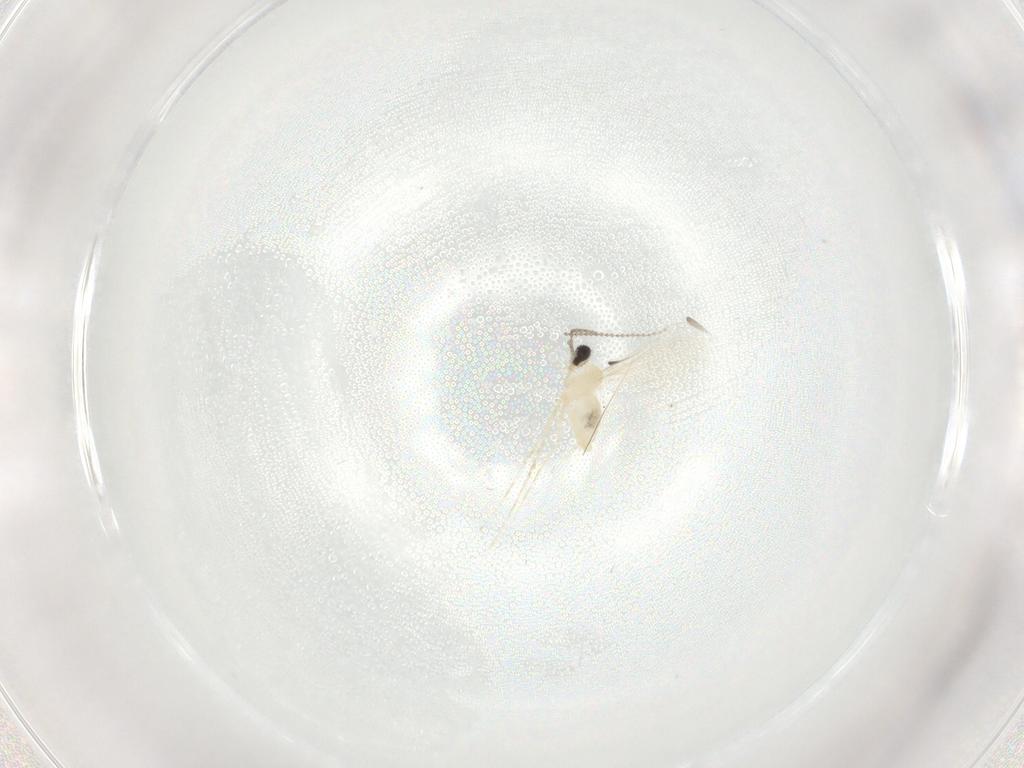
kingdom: Animalia
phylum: Arthropoda
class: Insecta
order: Diptera
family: Cecidomyiidae
